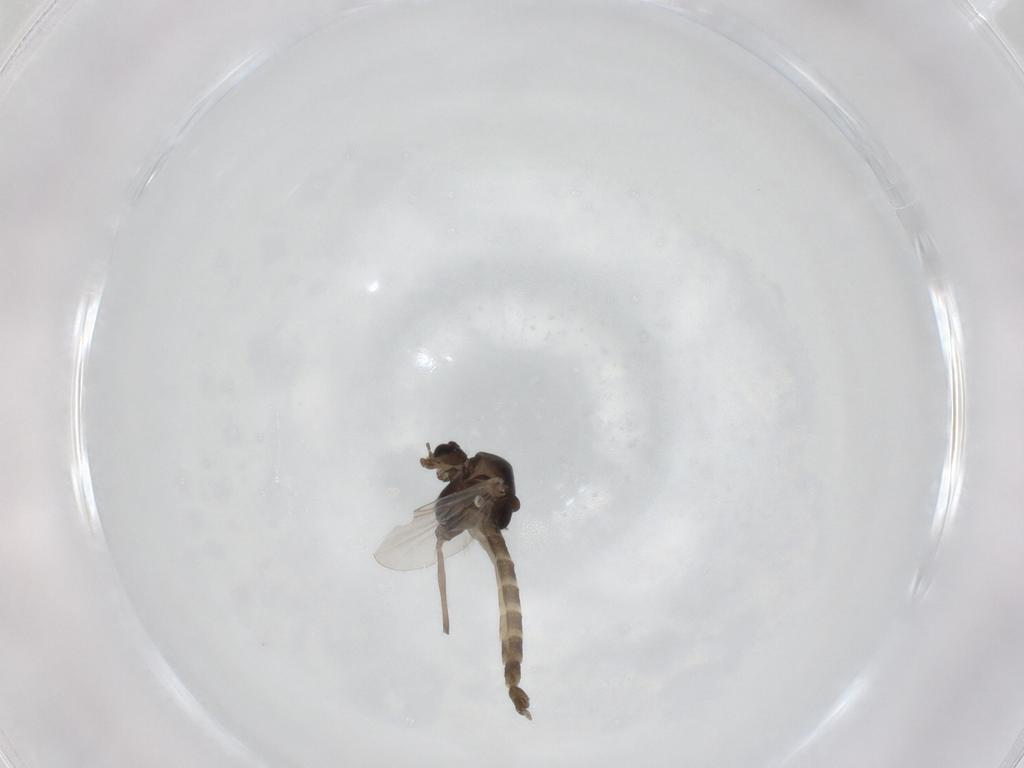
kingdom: Animalia
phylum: Arthropoda
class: Insecta
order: Diptera
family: Chironomidae
